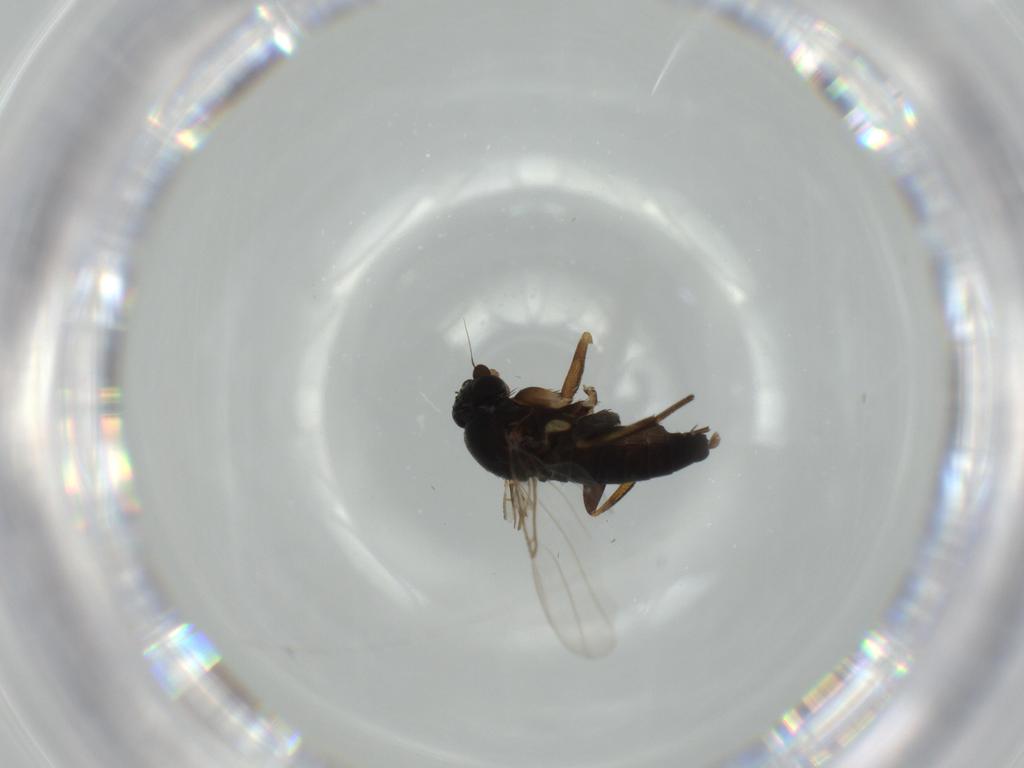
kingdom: Animalia
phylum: Arthropoda
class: Insecta
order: Diptera
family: Phoridae
